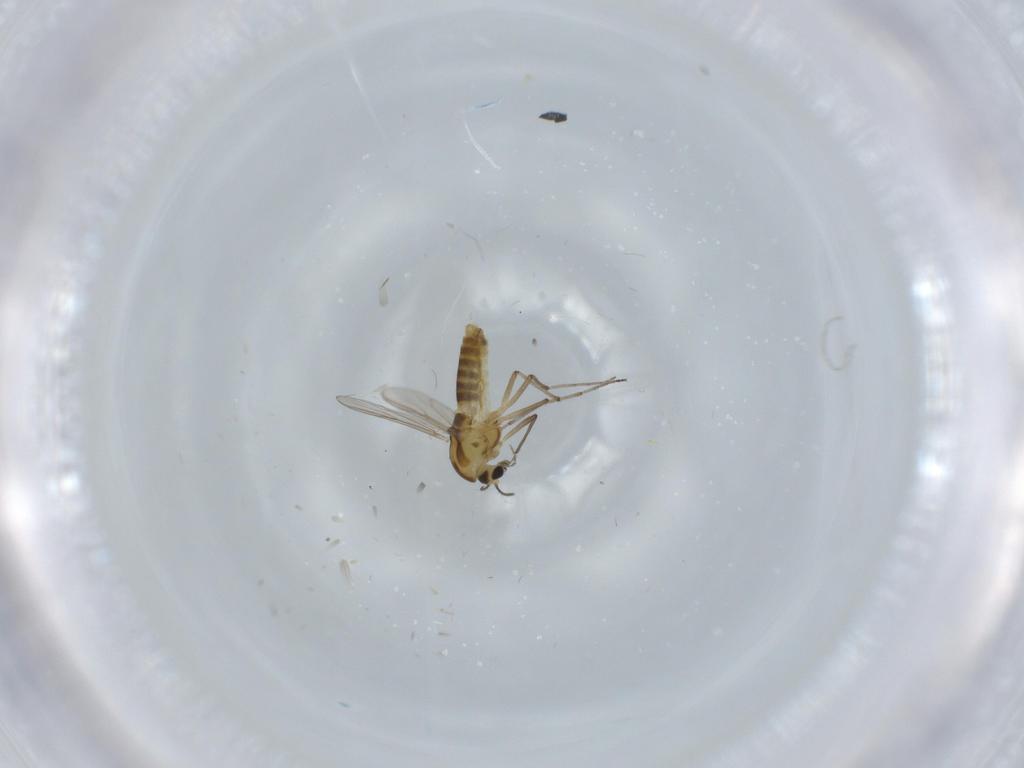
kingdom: Animalia
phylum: Arthropoda
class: Insecta
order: Diptera
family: Chironomidae
